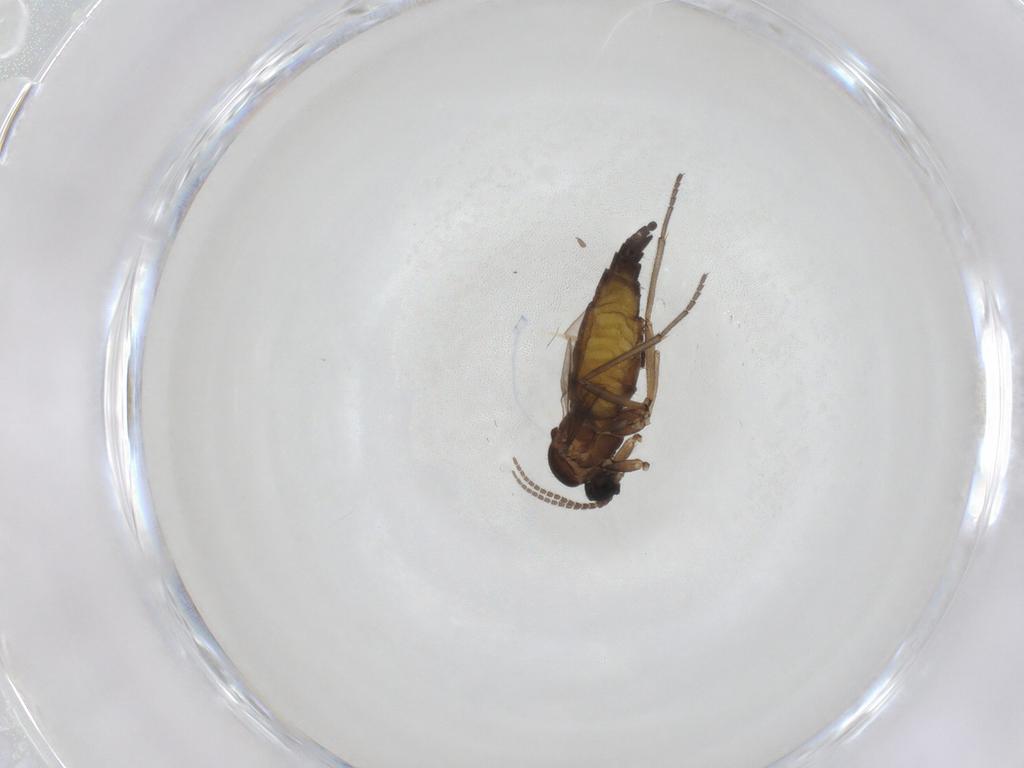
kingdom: Animalia
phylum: Arthropoda
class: Insecta
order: Diptera
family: Sciaridae
